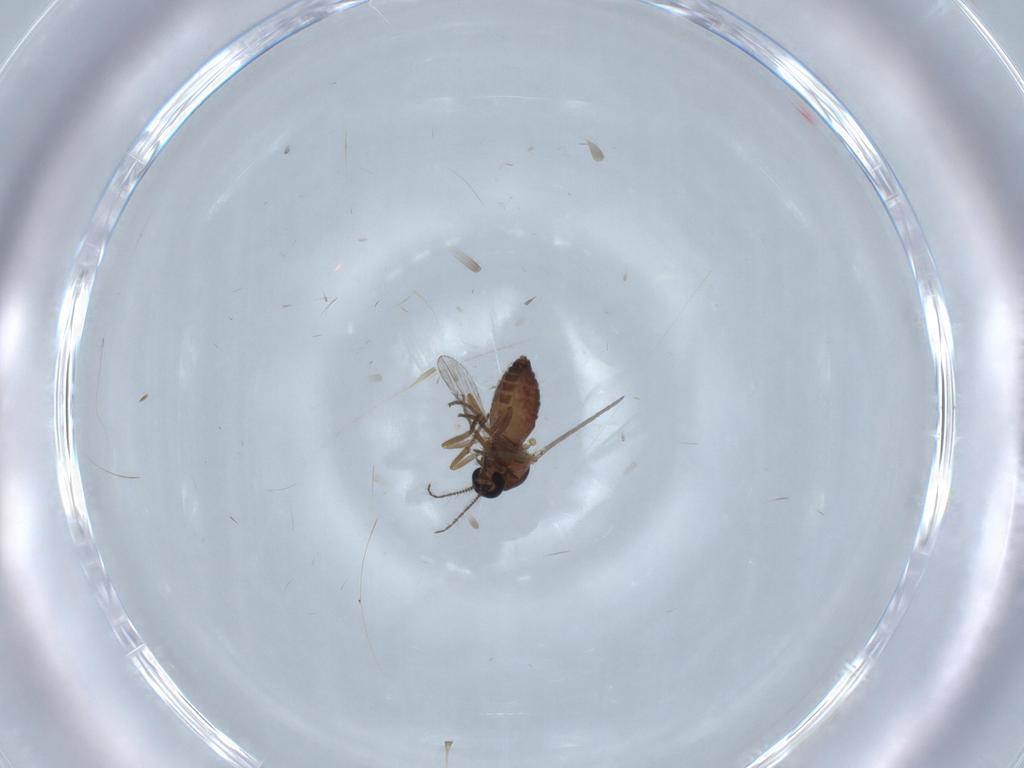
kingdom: Animalia
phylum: Arthropoda
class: Insecta
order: Diptera
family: Ceratopogonidae
